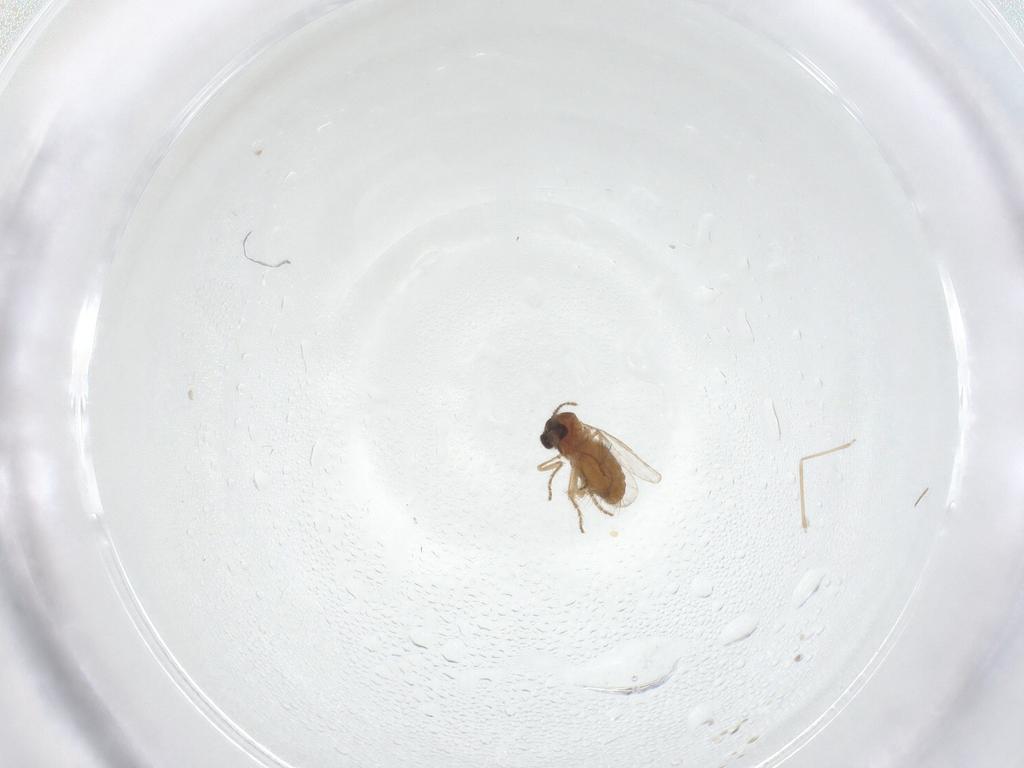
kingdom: Animalia
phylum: Arthropoda
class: Insecta
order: Diptera
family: Ceratopogonidae
